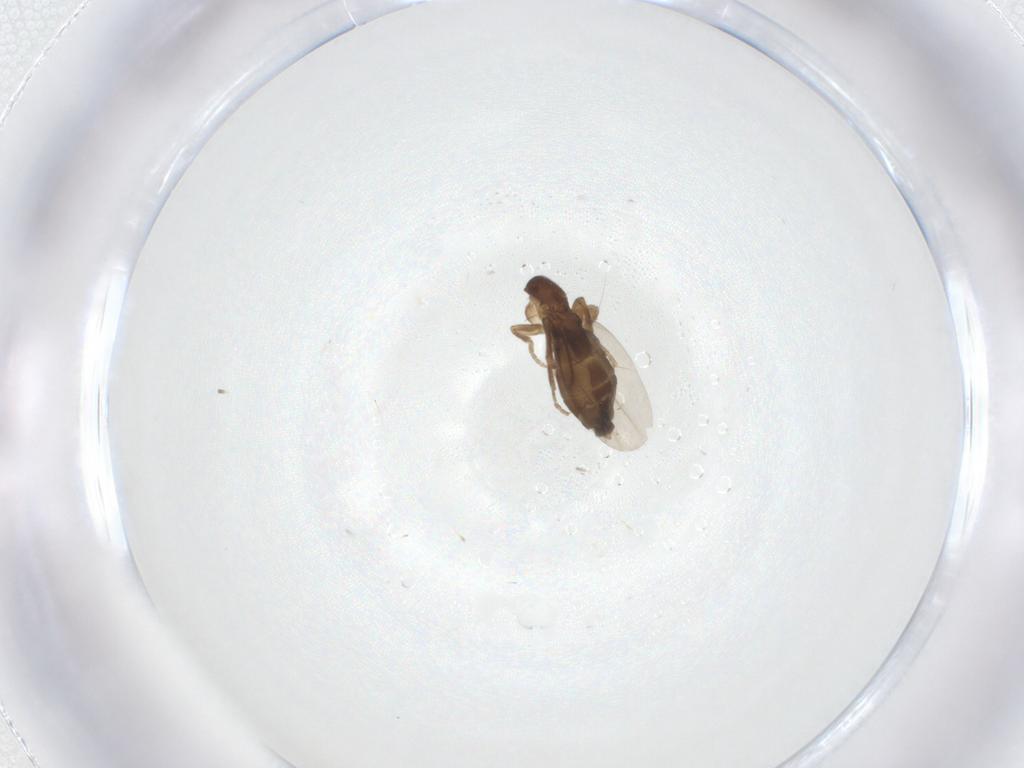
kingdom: Animalia
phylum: Arthropoda
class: Insecta
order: Diptera
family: Phoridae
